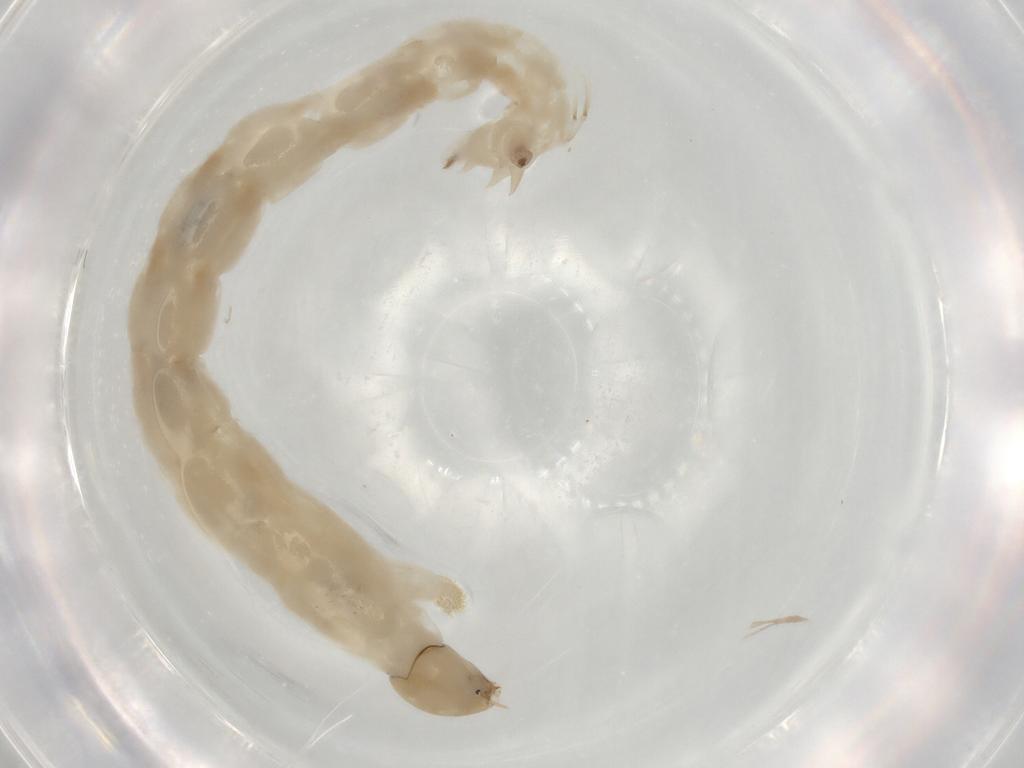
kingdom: Animalia
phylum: Arthropoda
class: Insecta
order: Diptera
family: Chironomidae
